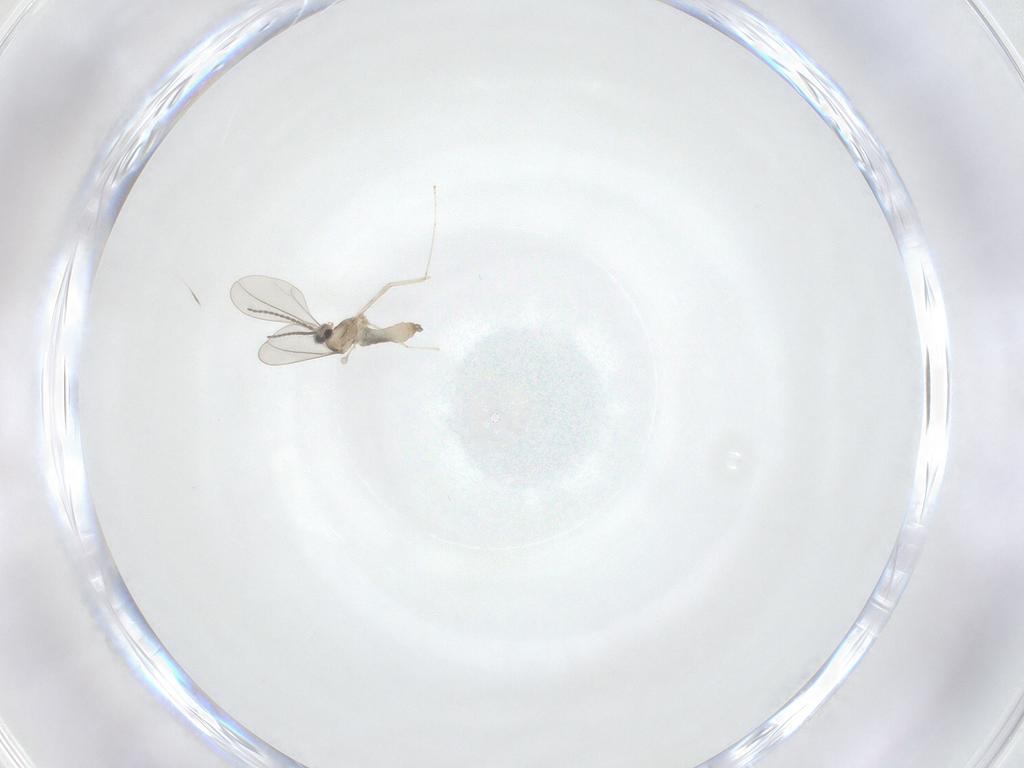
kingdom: Animalia
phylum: Arthropoda
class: Insecta
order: Diptera
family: Cecidomyiidae
